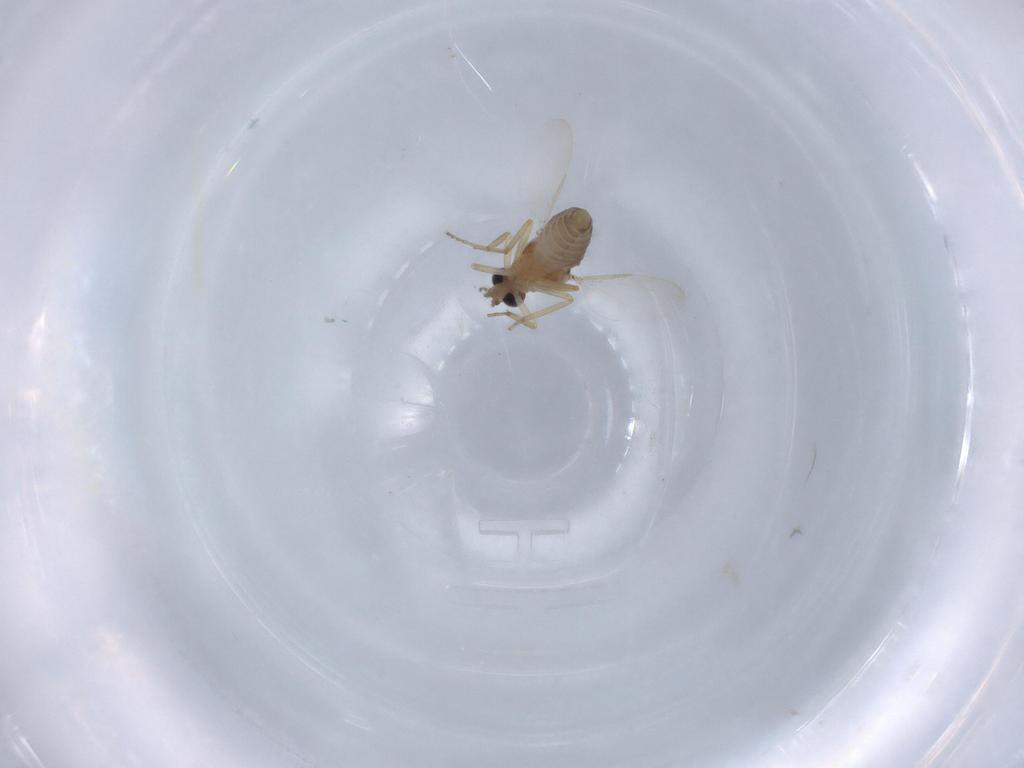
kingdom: Animalia
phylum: Arthropoda
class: Insecta
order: Diptera
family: Ceratopogonidae
